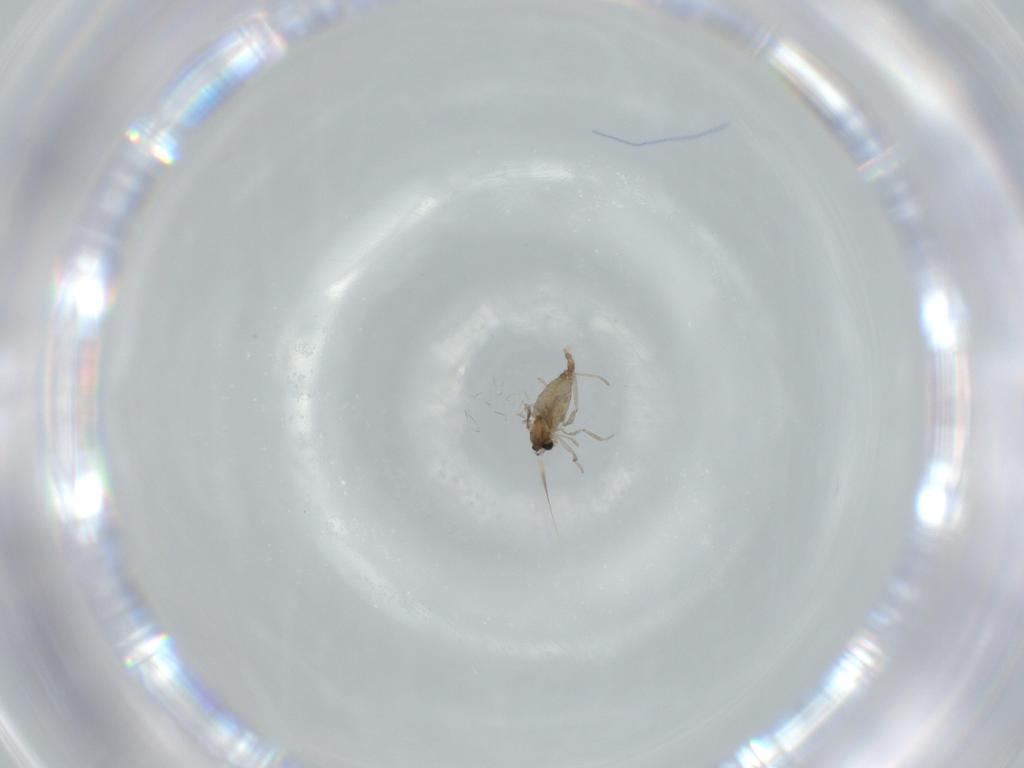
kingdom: Animalia
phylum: Arthropoda
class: Insecta
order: Diptera
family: Cecidomyiidae
